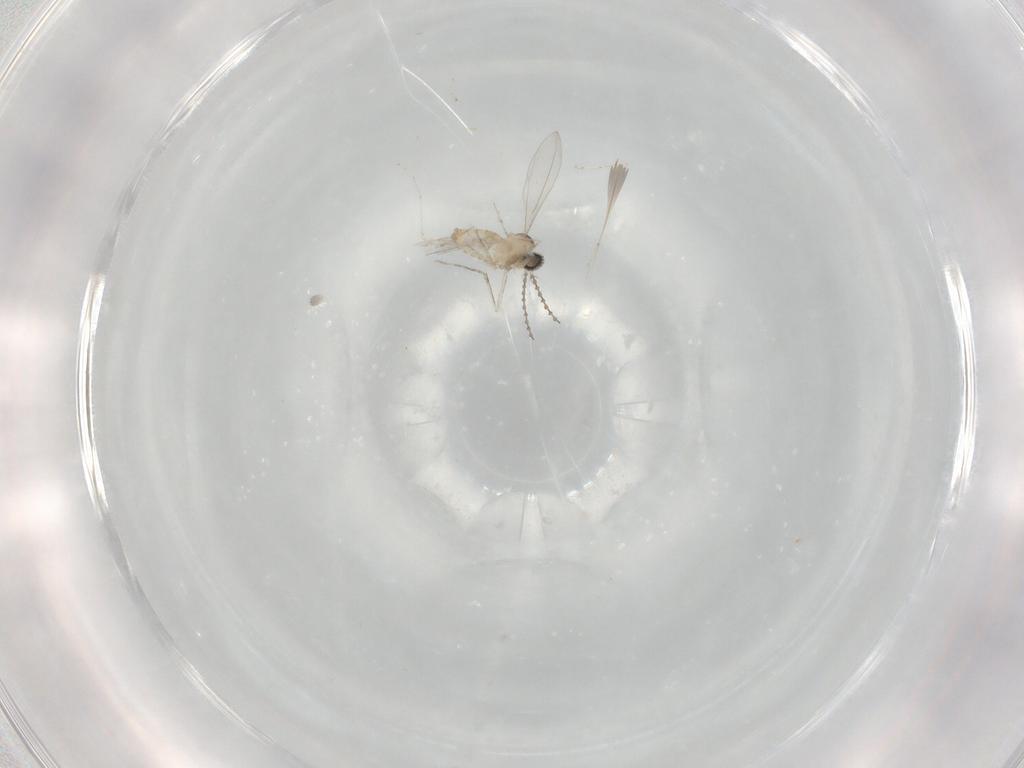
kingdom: Animalia
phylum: Arthropoda
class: Insecta
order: Diptera
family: Cecidomyiidae
